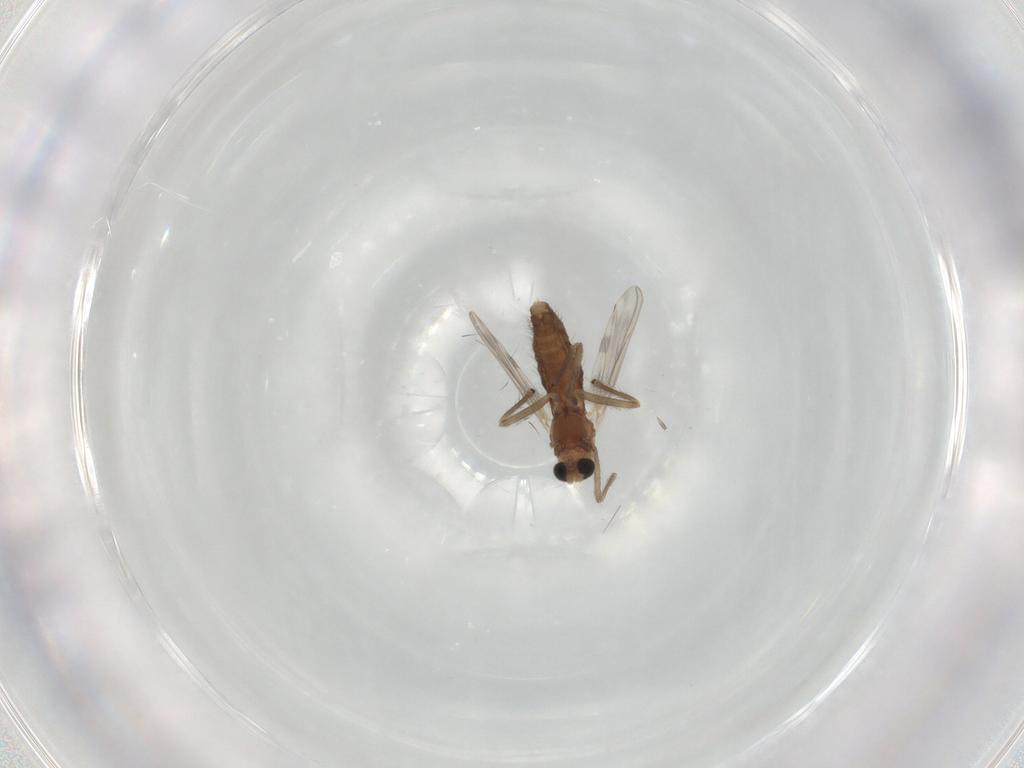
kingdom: Animalia
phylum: Arthropoda
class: Insecta
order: Diptera
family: Chironomidae
